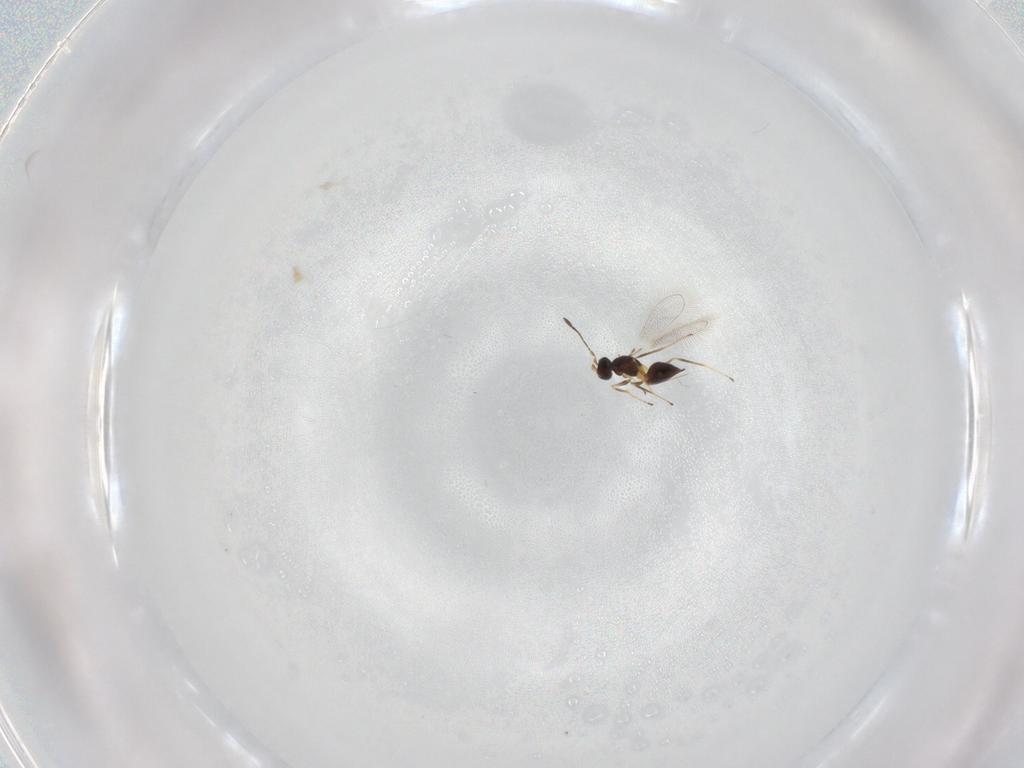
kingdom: Animalia
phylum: Arthropoda
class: Insecta
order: Hymenoptera
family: Mymaridae
